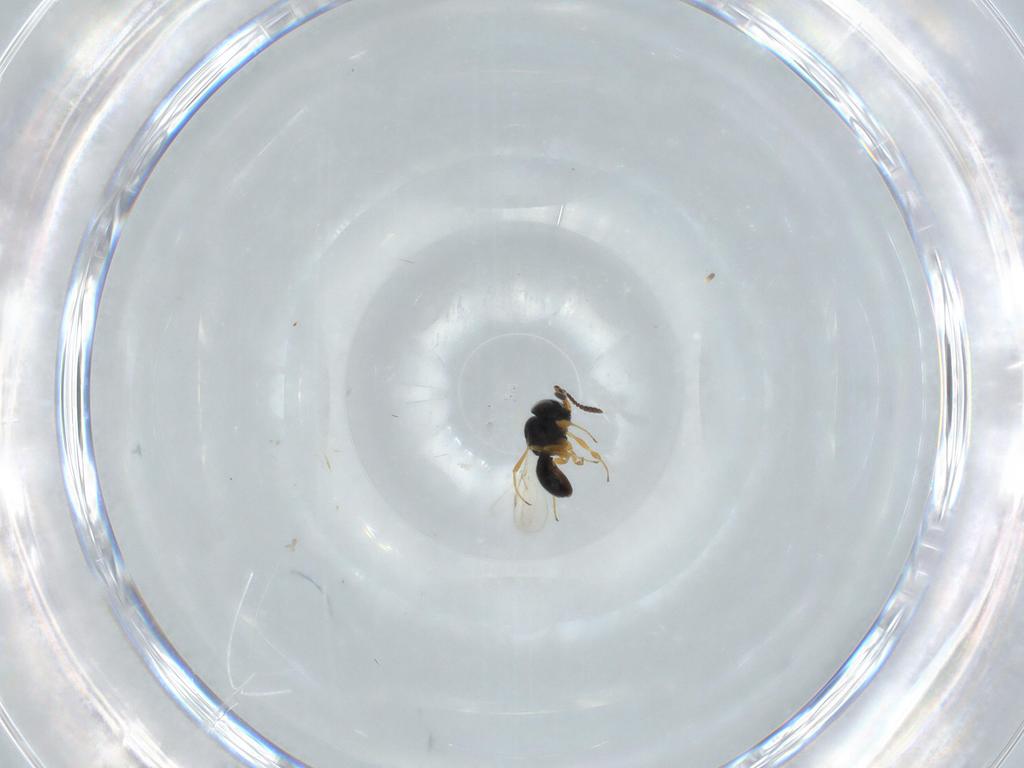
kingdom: Animalia
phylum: Arthropoda
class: Insecta
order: Hymenoptera
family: Scelionidae
